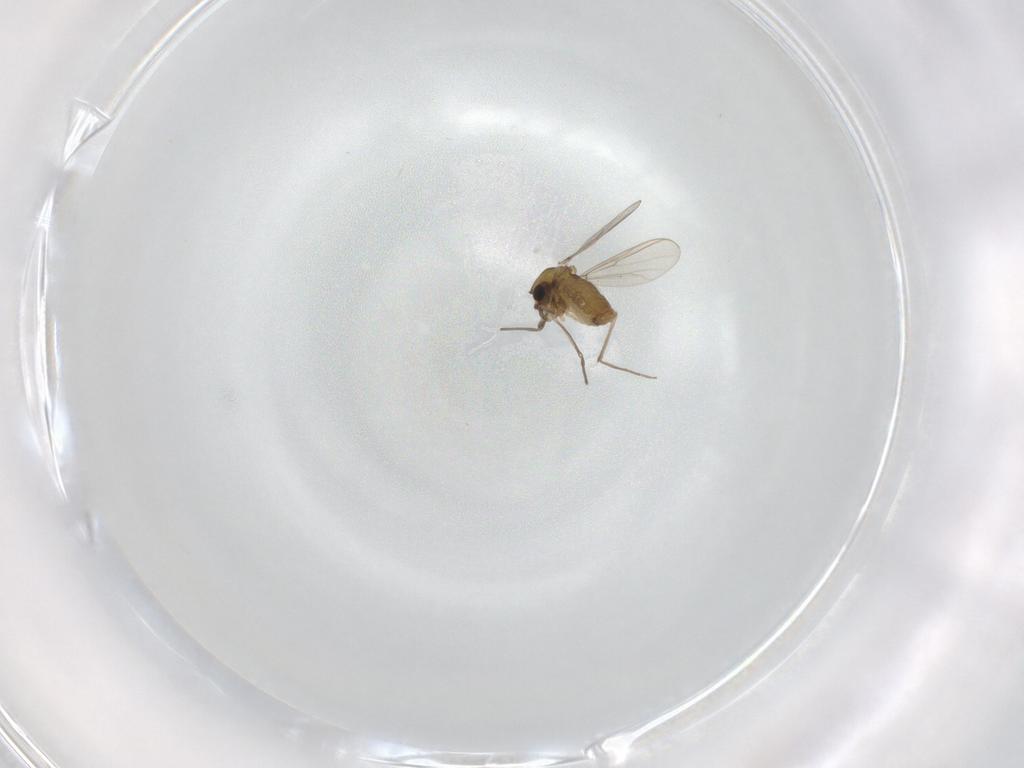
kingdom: Animalia
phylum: Arthropoda
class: Insecta
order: Diptera
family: Chironomidae
